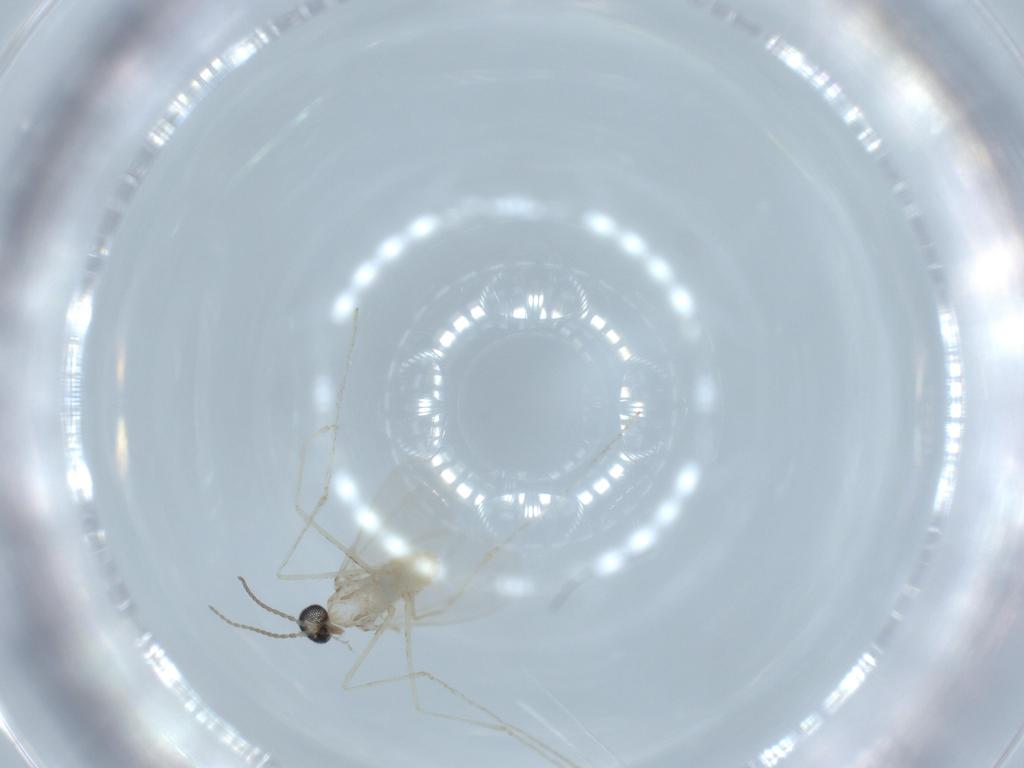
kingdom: Animalia
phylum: Arthropoda
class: Insecta
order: Diptera
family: Cecidomyiidae
